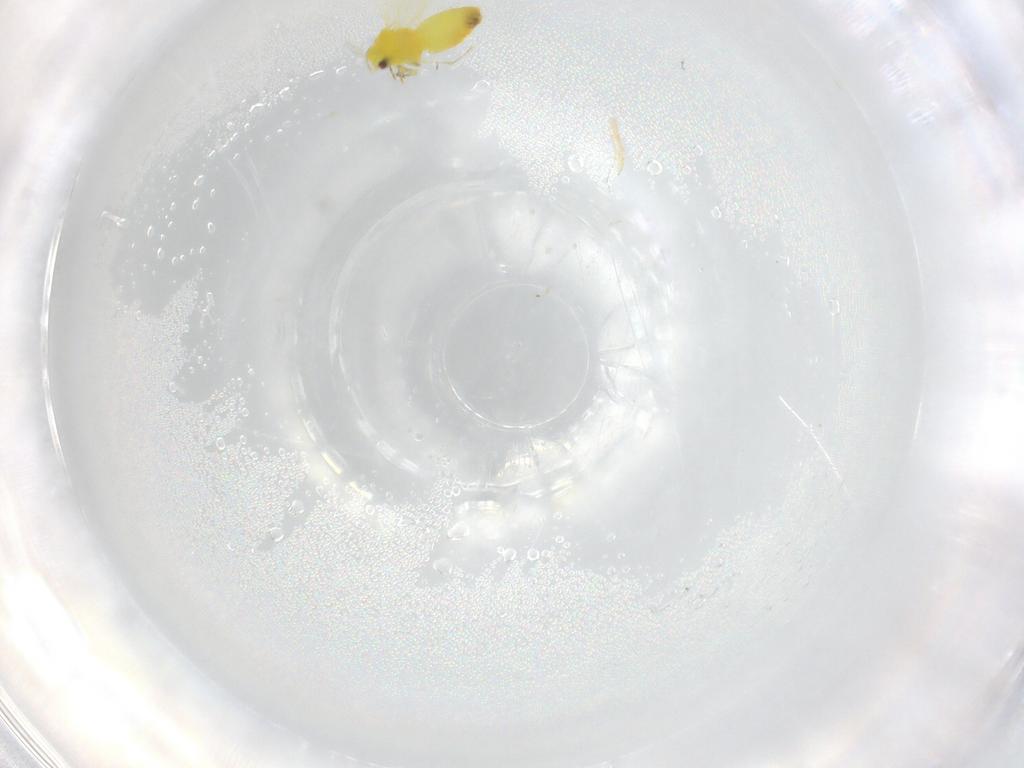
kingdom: Animalia
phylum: Arthropoda
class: Insecta
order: Hemiptera
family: Aleyrodidae
